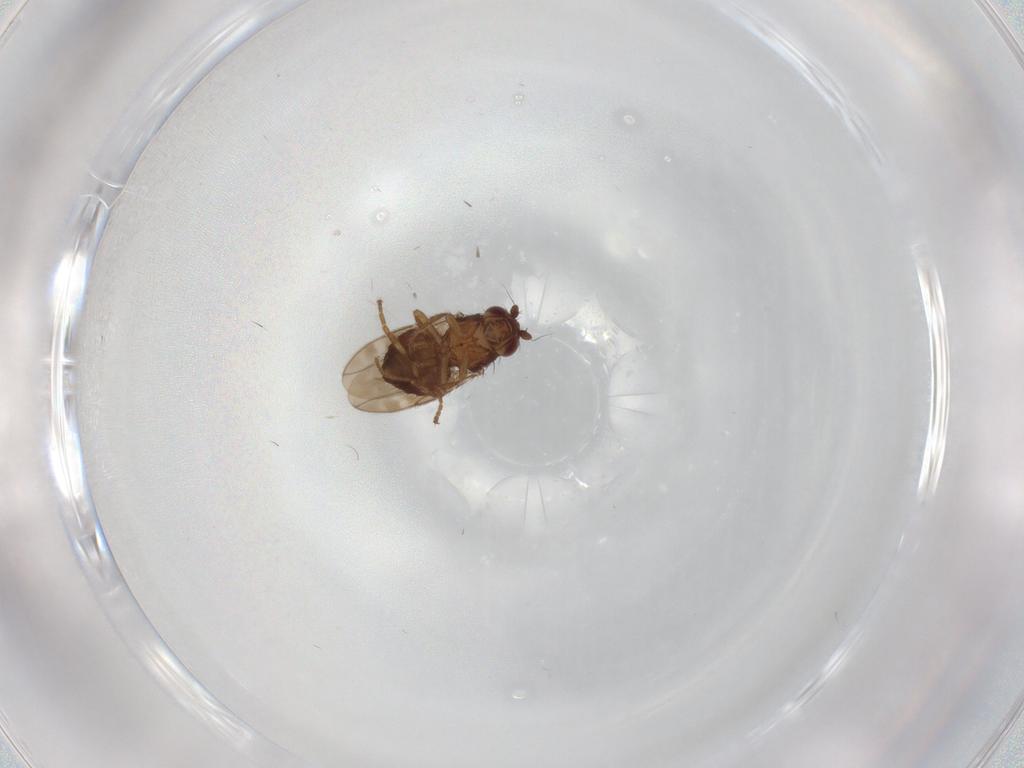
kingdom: Animalia
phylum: Arthropoda
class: Insecta
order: Diptera
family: Sphaeroceridae
